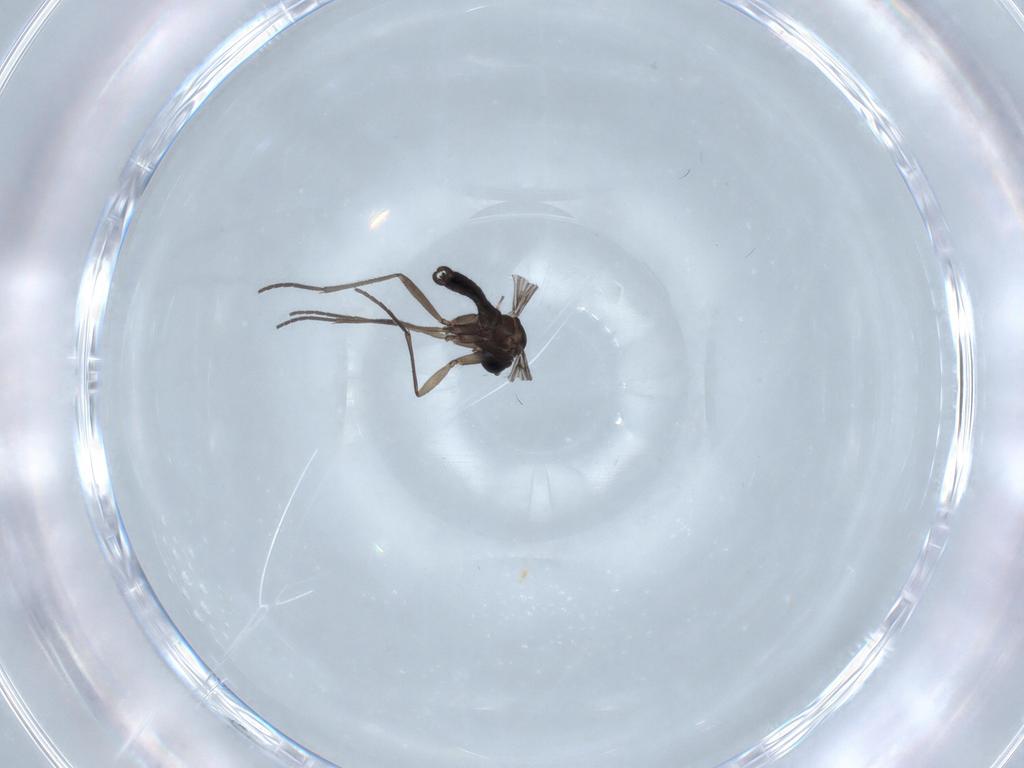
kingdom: Animalia
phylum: Arthropoda
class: Insecta
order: Diptera
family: Sciaridae
